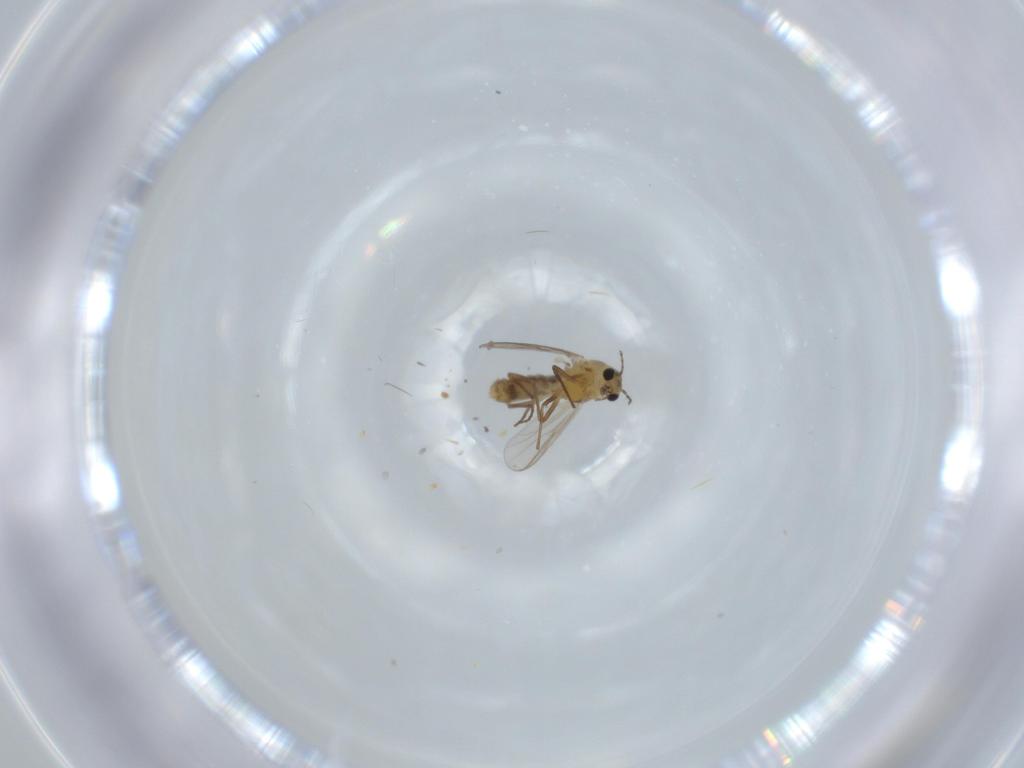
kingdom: Animalia
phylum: Arthropoda
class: Insecta
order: Diptera
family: Chironomidae
